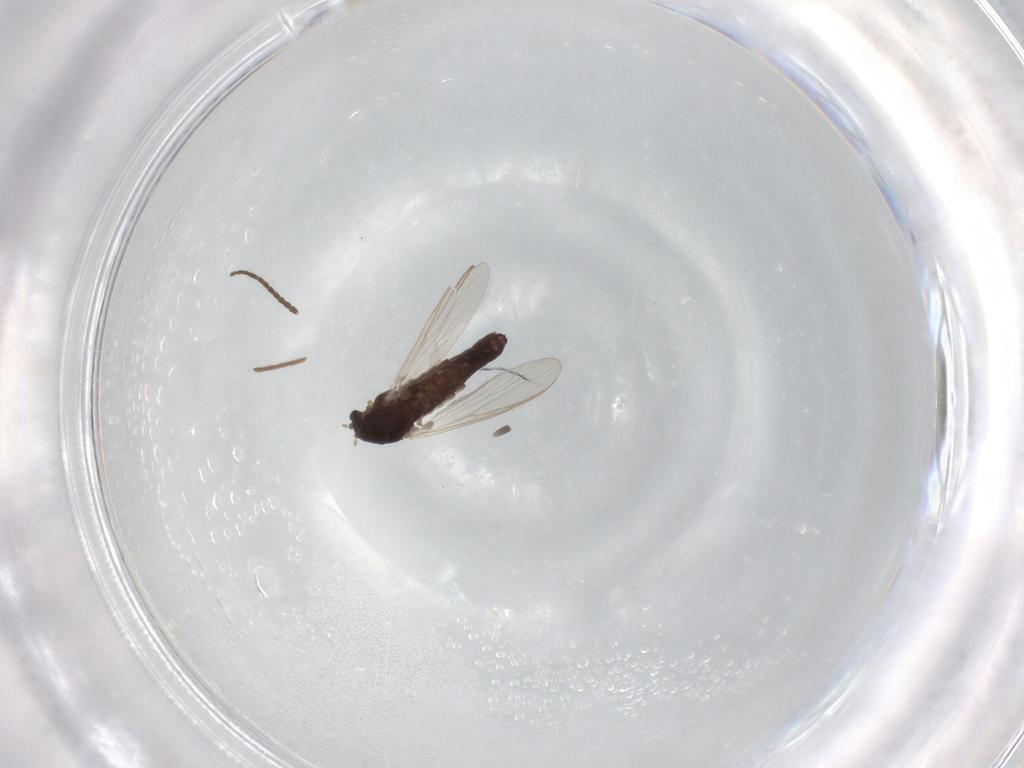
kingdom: Animalia
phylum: Arthropoda
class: Insecta
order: Diptera
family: Chironomidae
